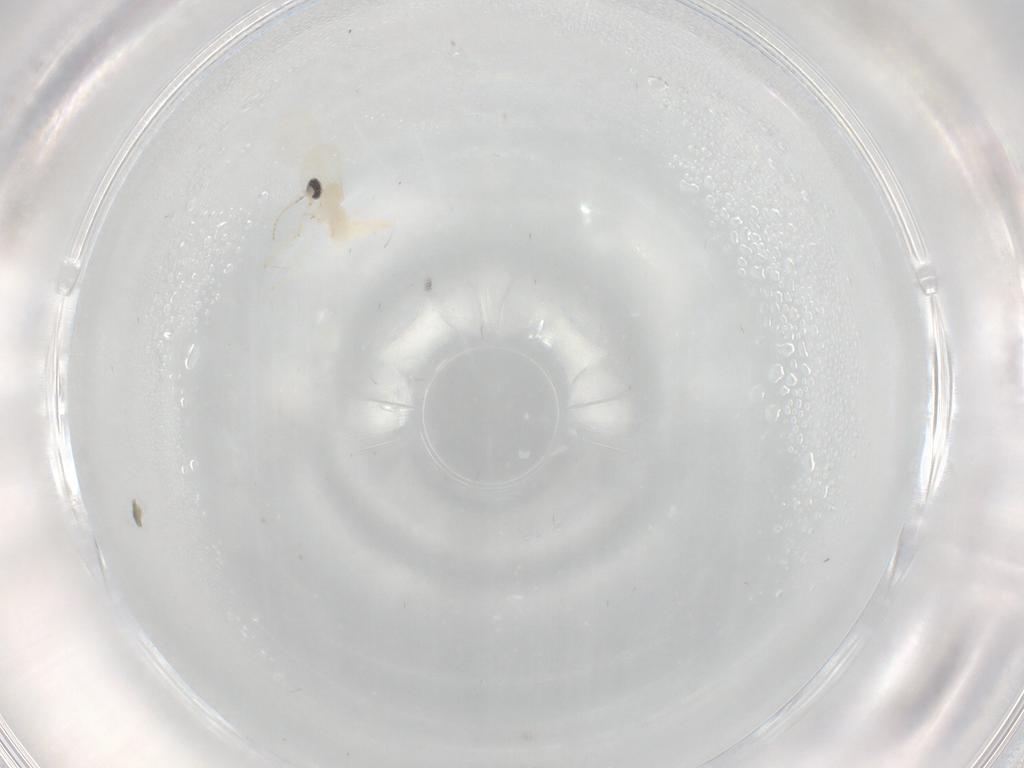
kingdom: Animalia
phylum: Arthropoda
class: Insecta
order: Diptera
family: Cecidomyiidae
